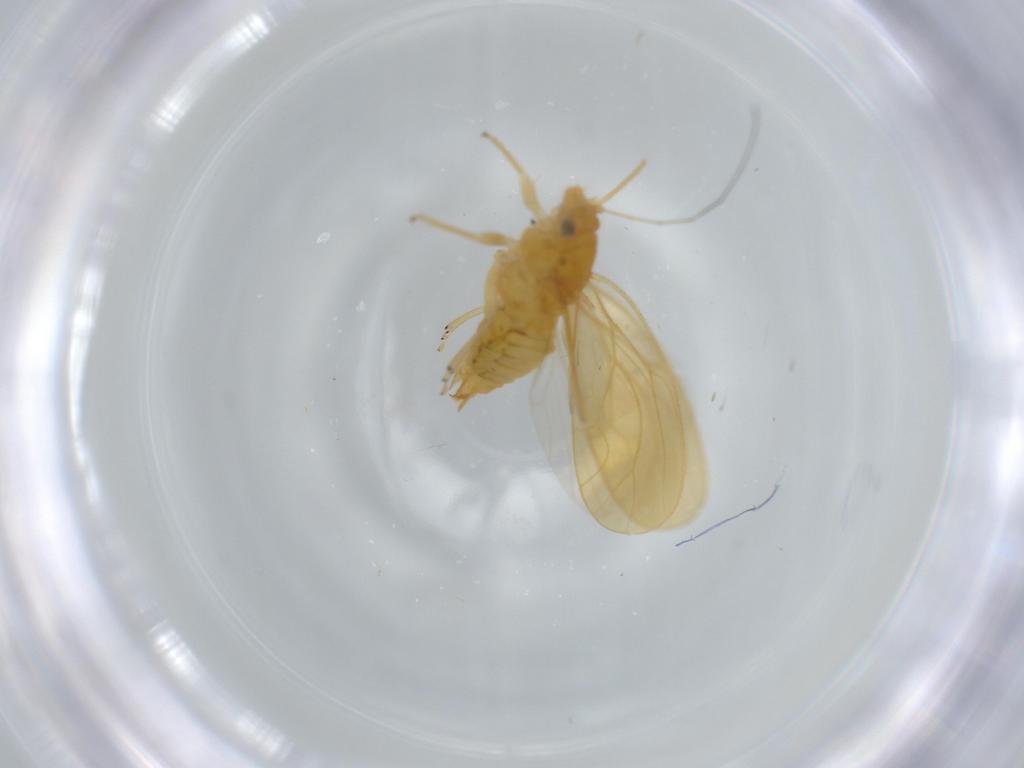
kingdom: Animalia
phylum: Arthropoda
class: Insecta
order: Hemiptera
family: Psyllidae
